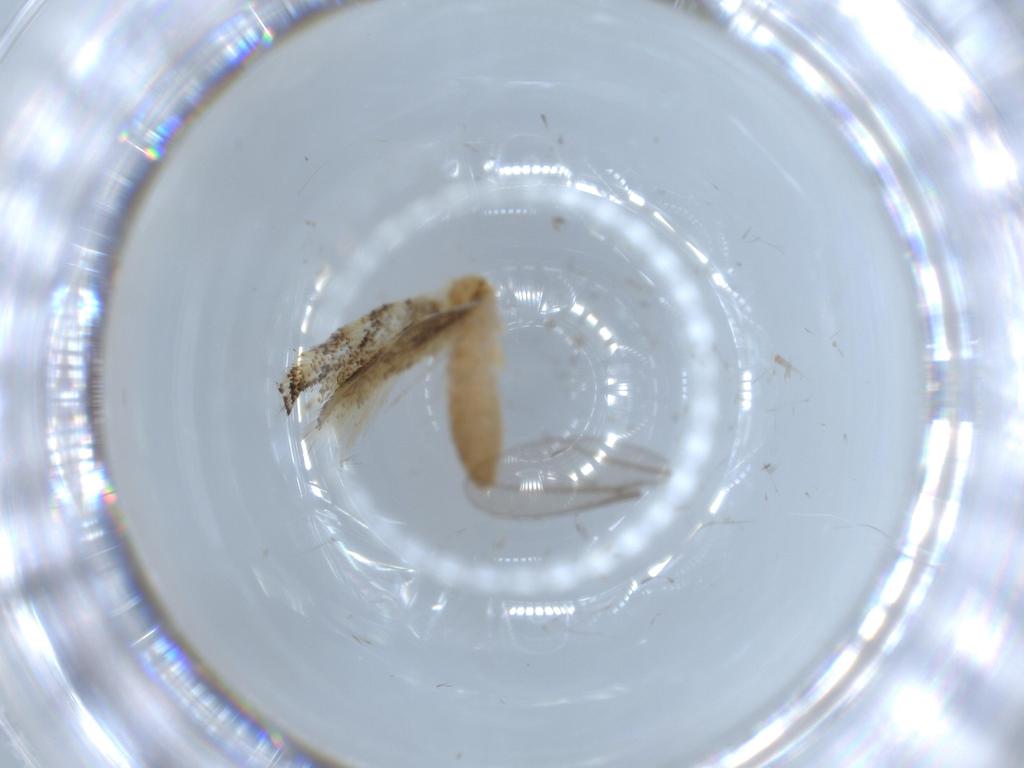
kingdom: Animalia
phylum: Arthropoda
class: Insecta
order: Lepidoptera
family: Bucculatricidae
